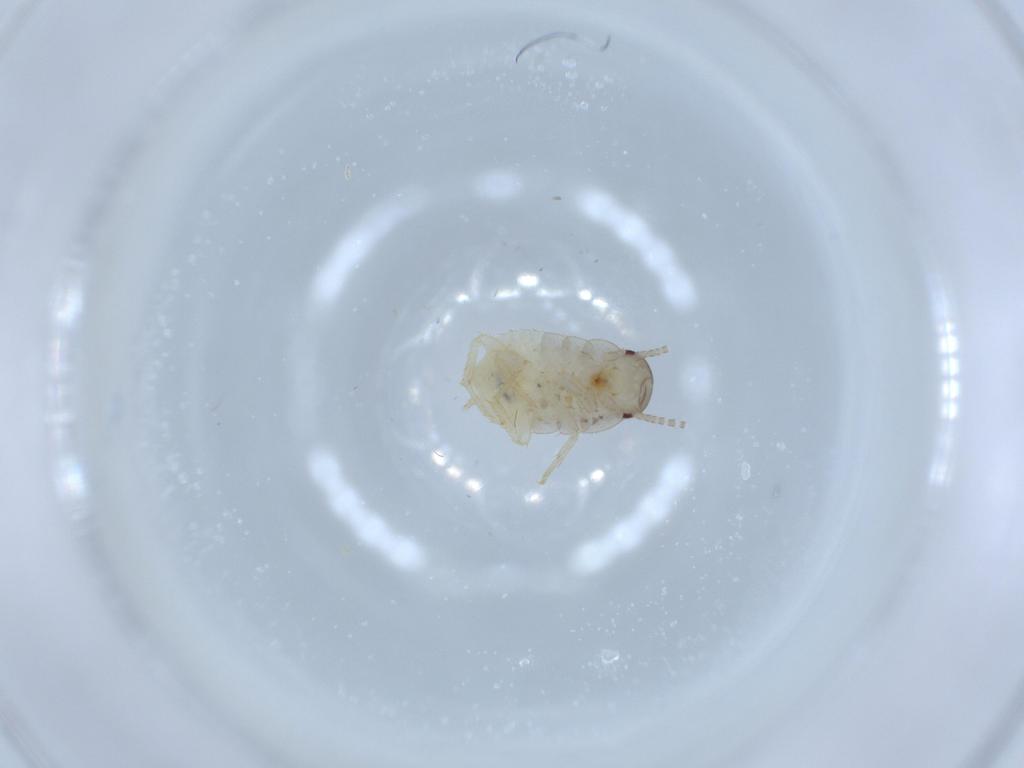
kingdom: Animalia
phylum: Arthropoda
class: Insecta
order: Blattodea
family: Ectobiidae
